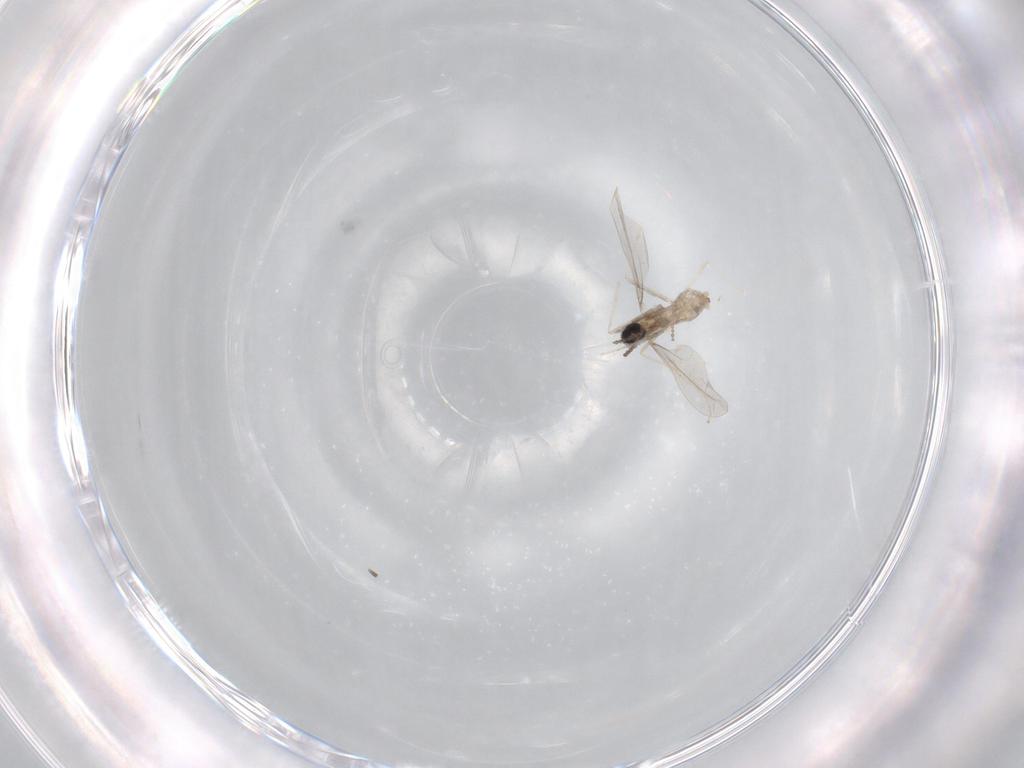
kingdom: Animalia
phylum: Arthropoda
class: Insecta
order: Diptera
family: Cecidomyiidae
